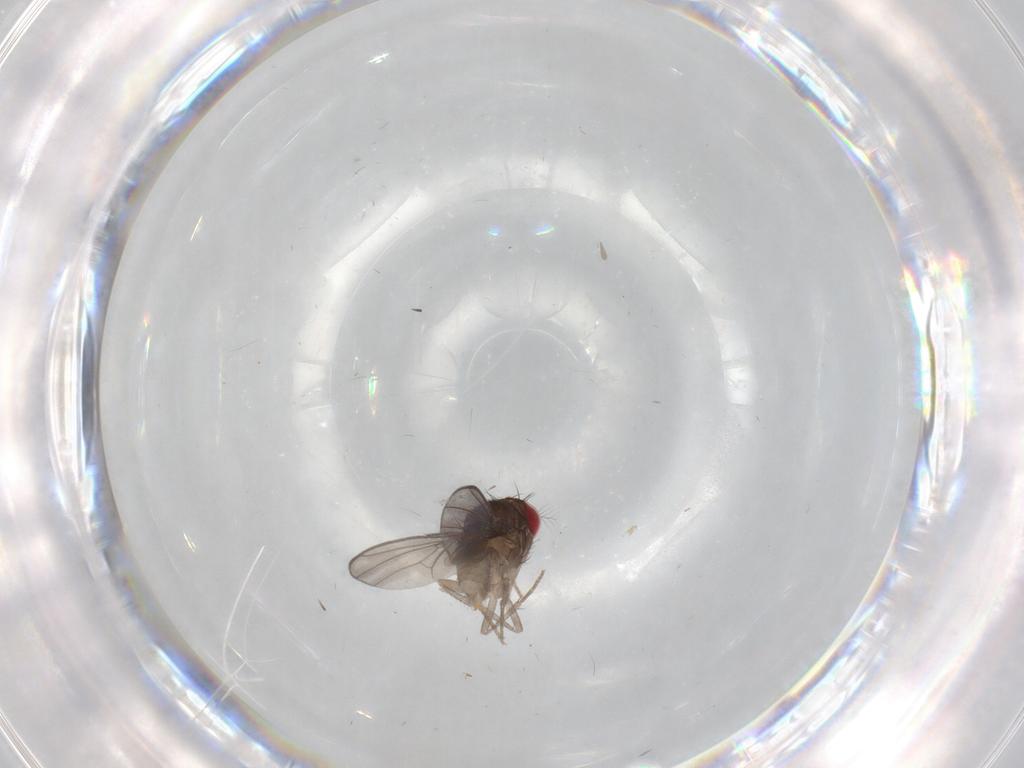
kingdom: Animalia
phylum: Arthropoda
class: Insecta
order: Diptera
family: Drosophilidae
